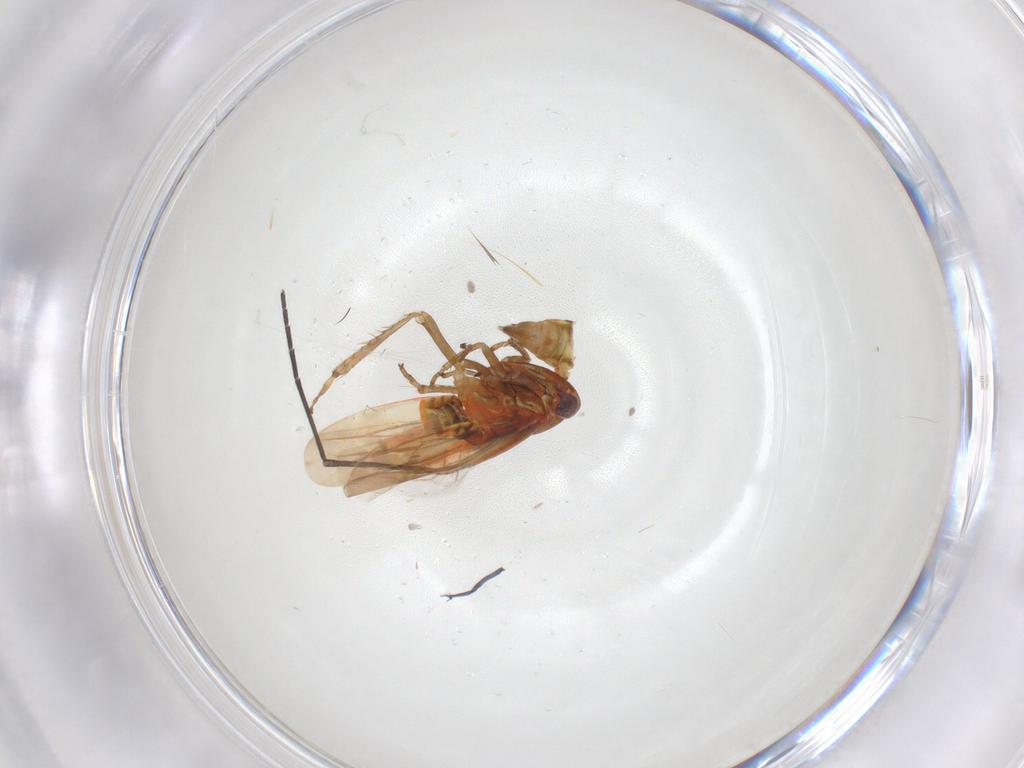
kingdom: Animalia
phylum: Arthropoda
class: Insecta
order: Hemiptera
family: Cicadellidae
